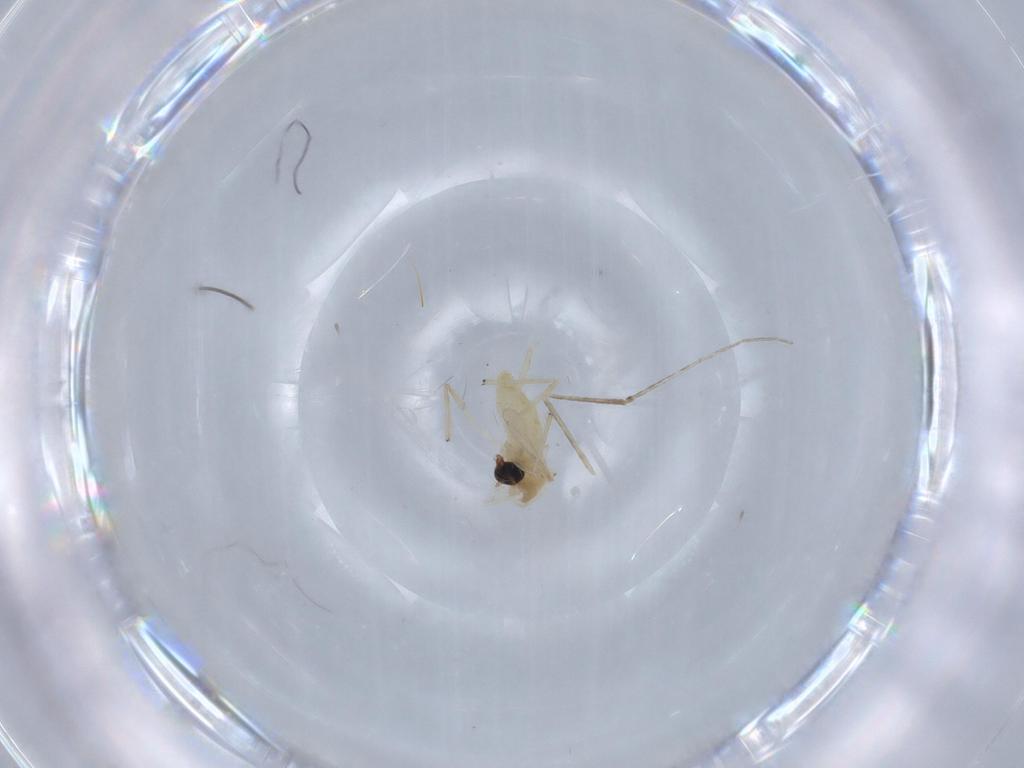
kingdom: Animalia
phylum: Arthropoda
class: Insecta
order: Diptera
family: Chironomidae
